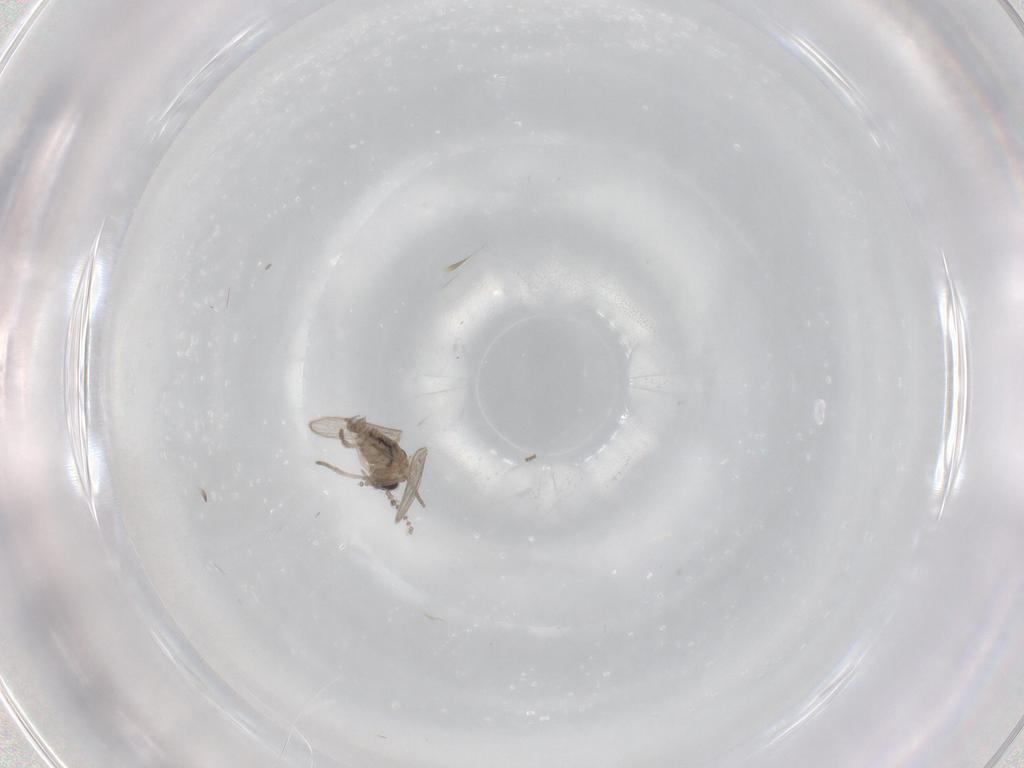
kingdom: Animalia
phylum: Arthropoda
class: Insecta
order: Diptera
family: Psychodidae
